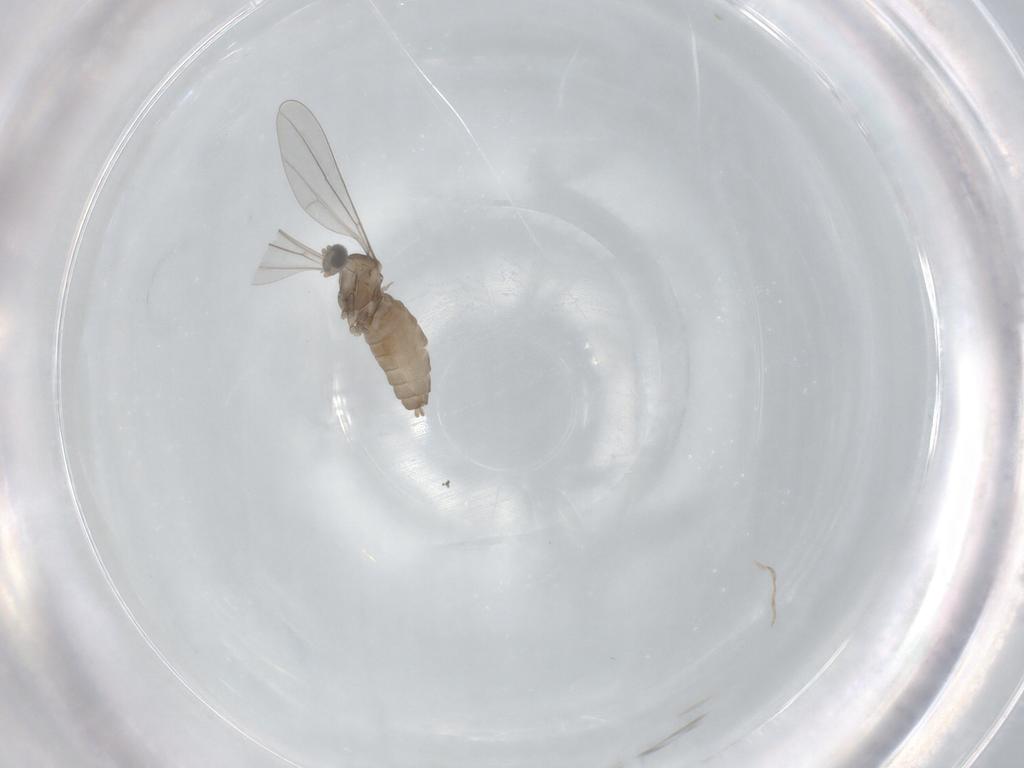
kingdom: Animalia
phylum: Arthropoda
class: Insecta
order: Diptera
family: Cecidomyiidae
